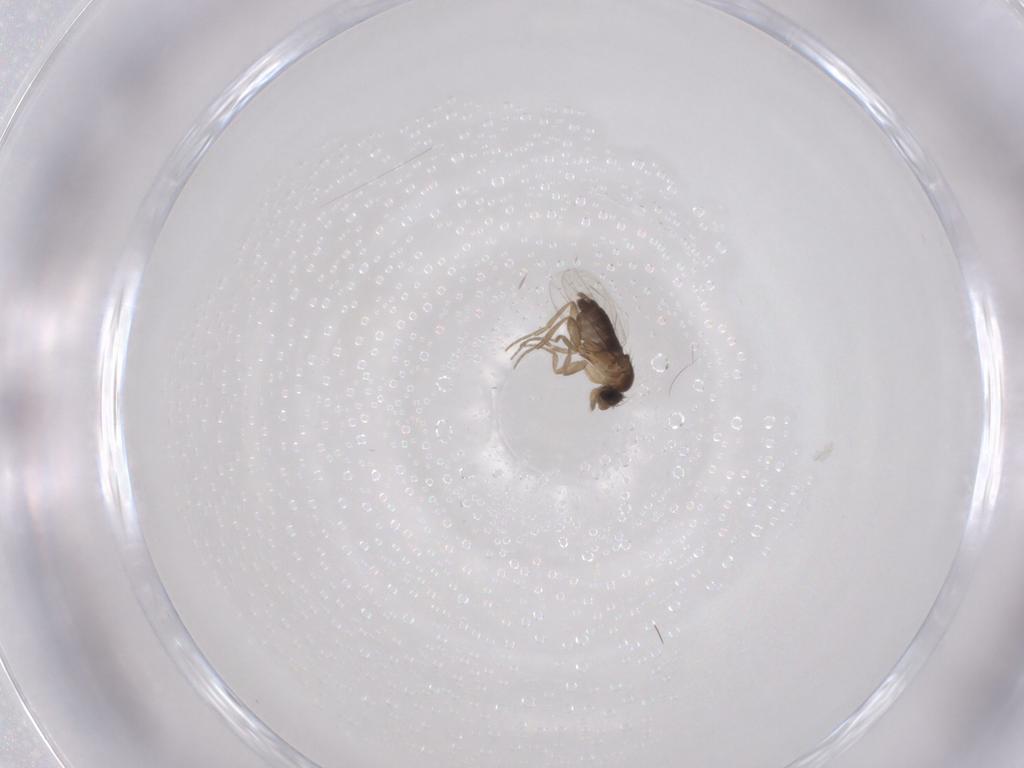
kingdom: Animalia
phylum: Arthropoda
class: Insecta
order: Diptera
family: Phoridae
